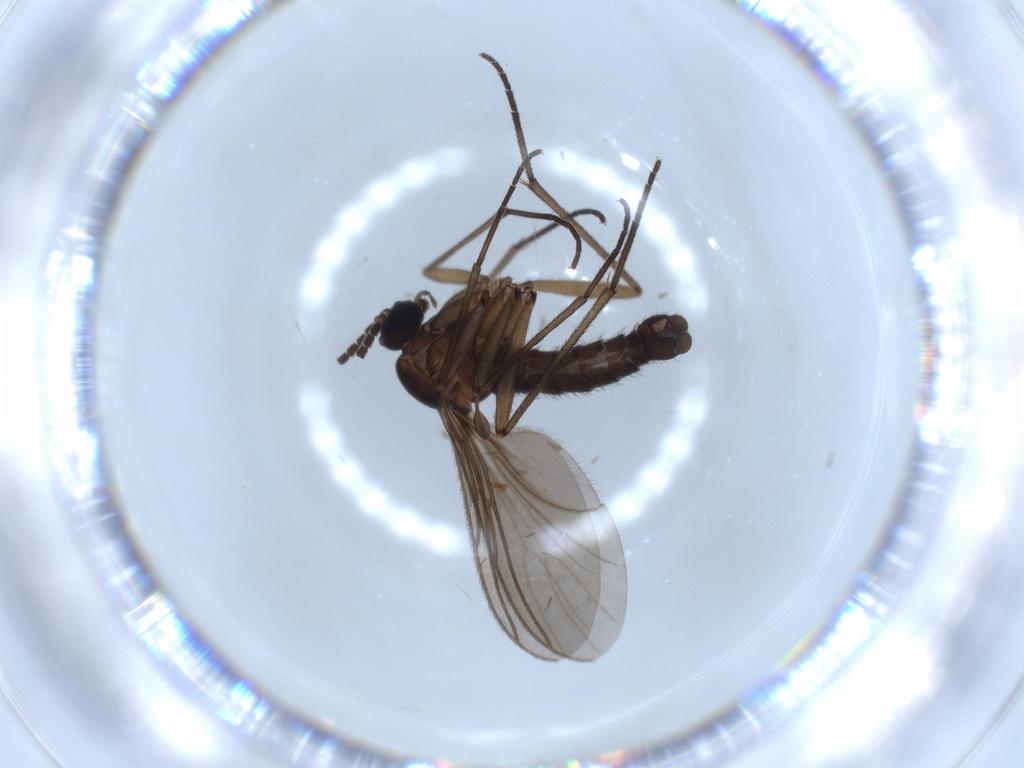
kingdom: Animalia
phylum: Arthropoda
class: Insecta
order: Diptera
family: Sciaridae
